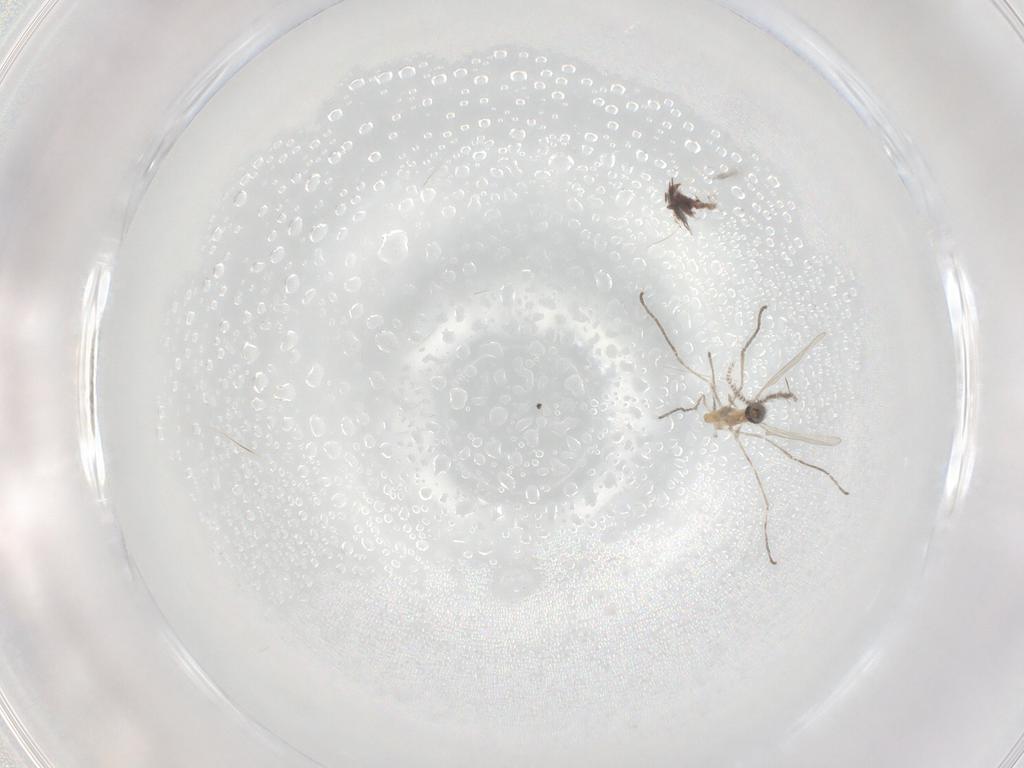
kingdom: Animalia
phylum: Arthropoda
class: Insecta
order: Diptera
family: Cecidomyiidae
